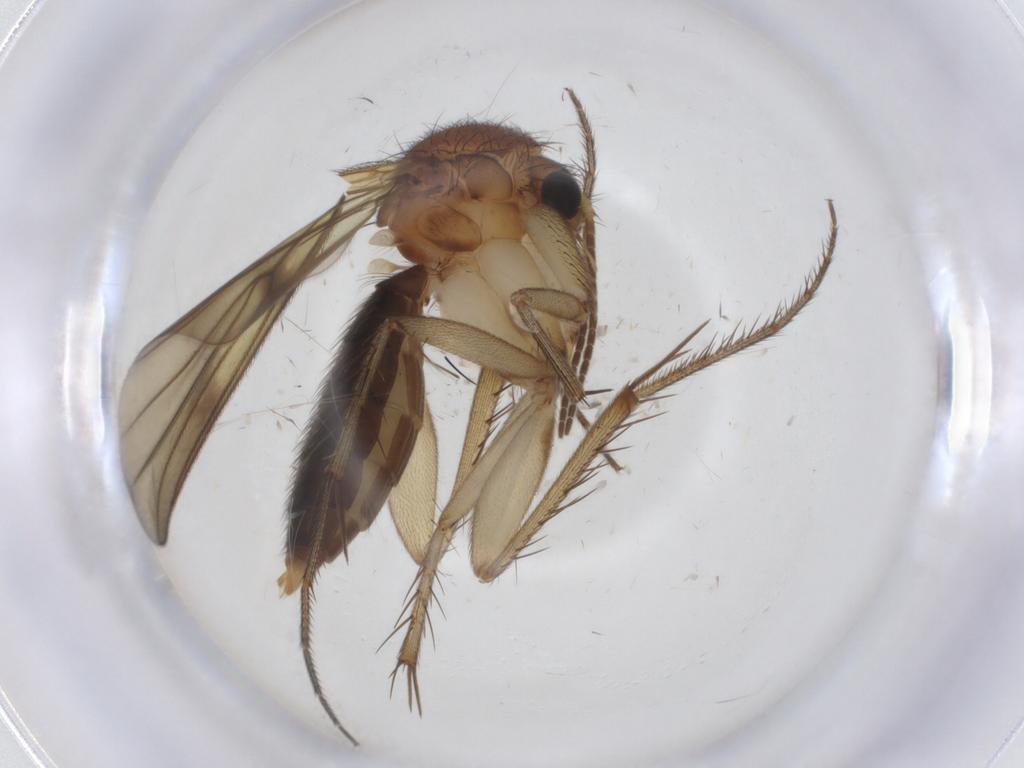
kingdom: Animalia
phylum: Arthropoda
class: Insecta
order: Diptera
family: Sciaridae
